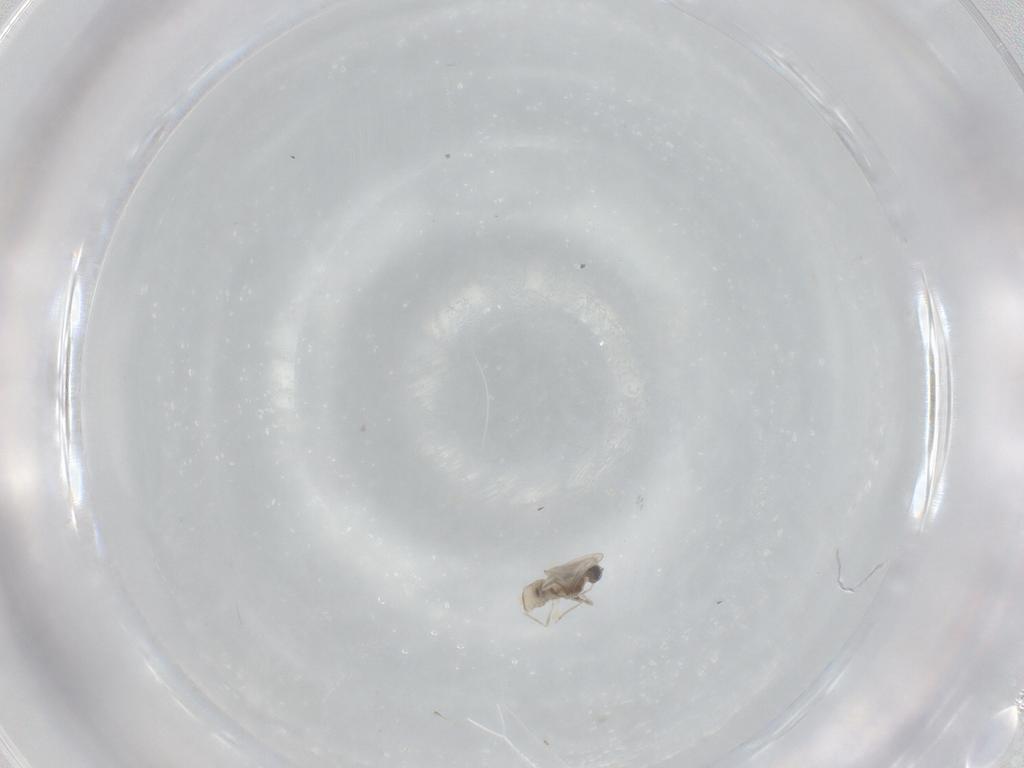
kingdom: Animalia
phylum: Arthropoda
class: Insecta
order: Diptera
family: Cecidomyiidae
